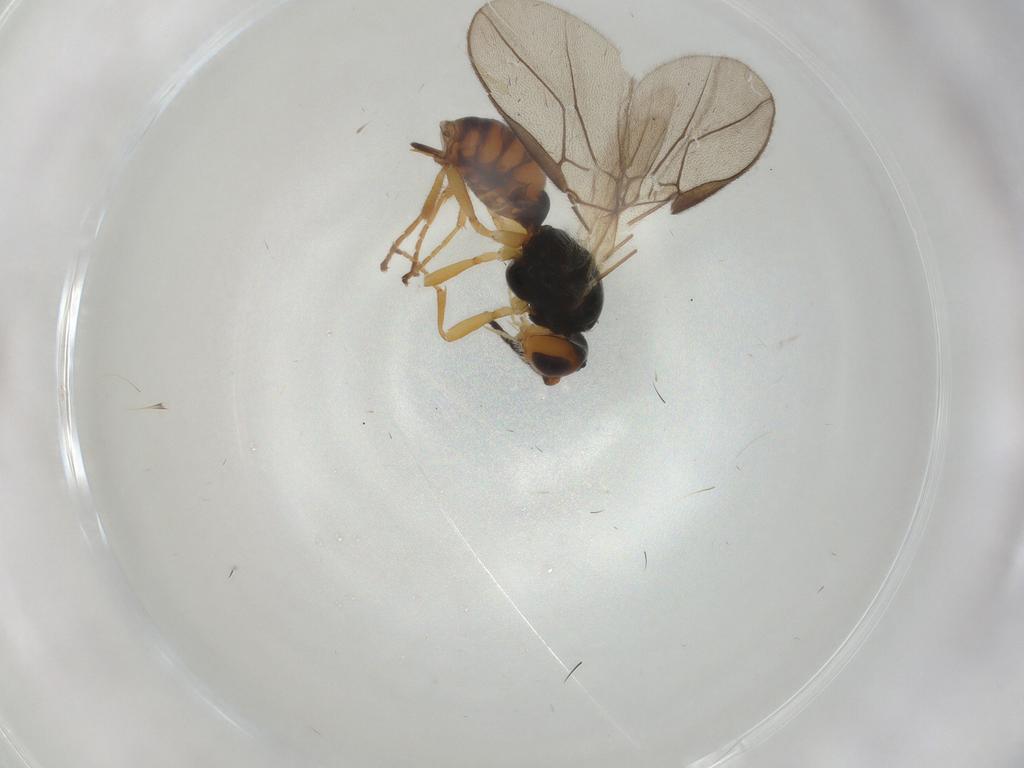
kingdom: Animalia
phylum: Arthropoda
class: Insecta
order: Hymenoptera
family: Braconidae
